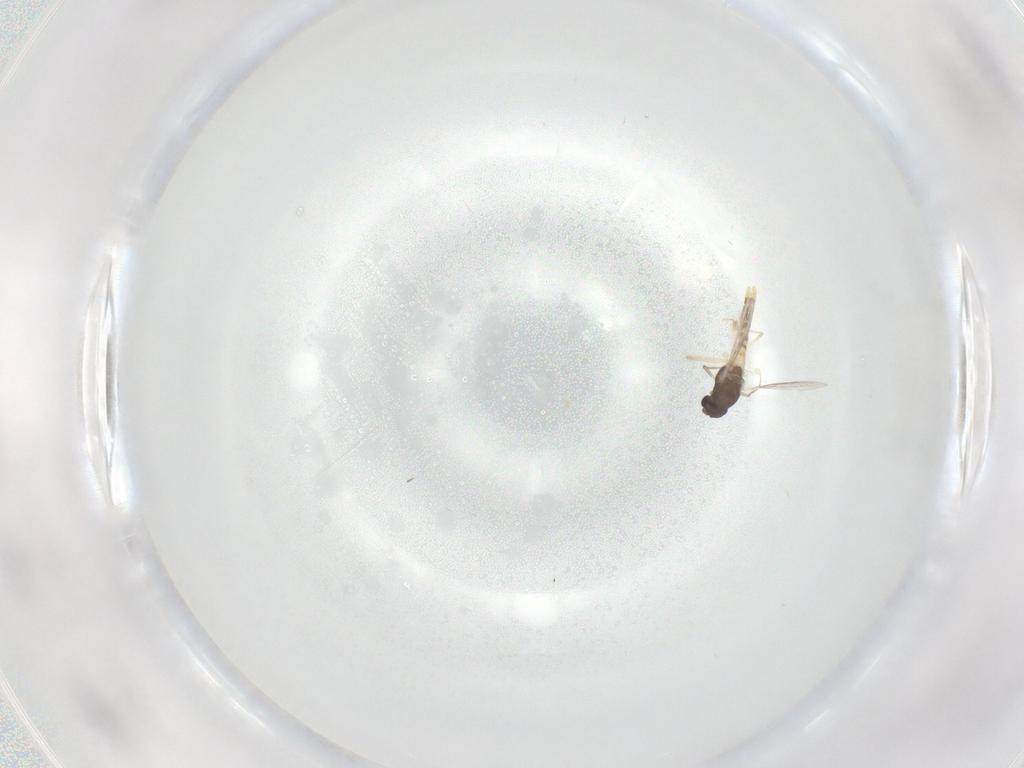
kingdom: Animalia
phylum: Arthropoda
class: Insecta
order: Diptera
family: Chironomidae
